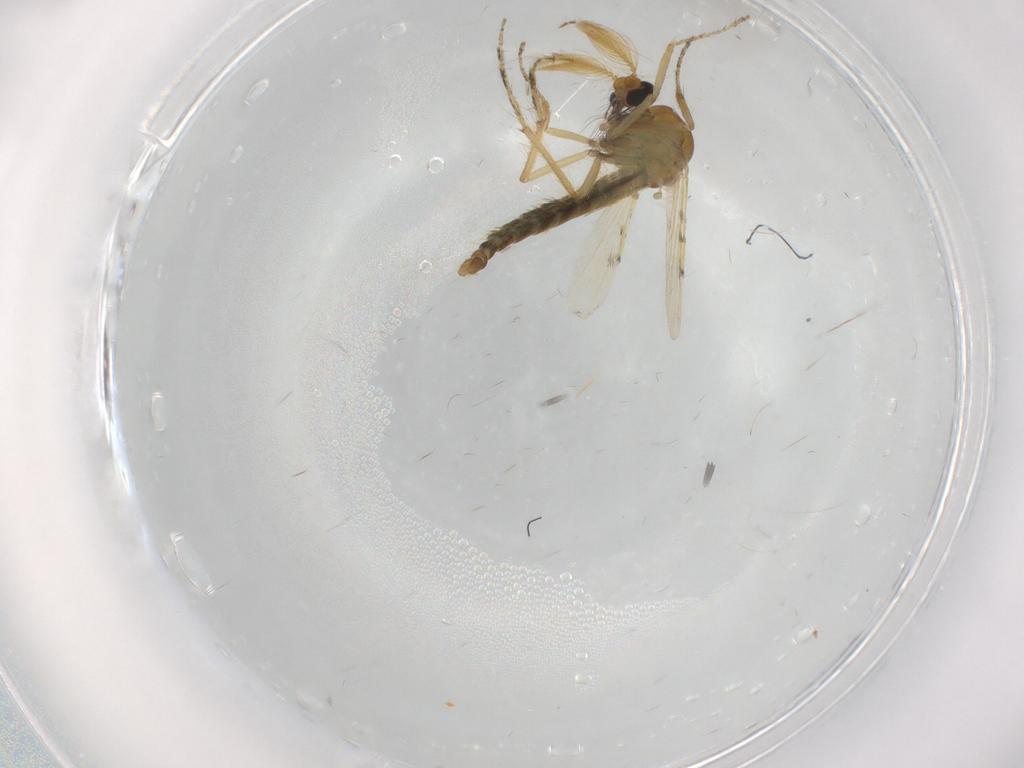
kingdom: Animalia
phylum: Arthropoda
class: Insecta
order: Diptera
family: Ceratopogonidae
